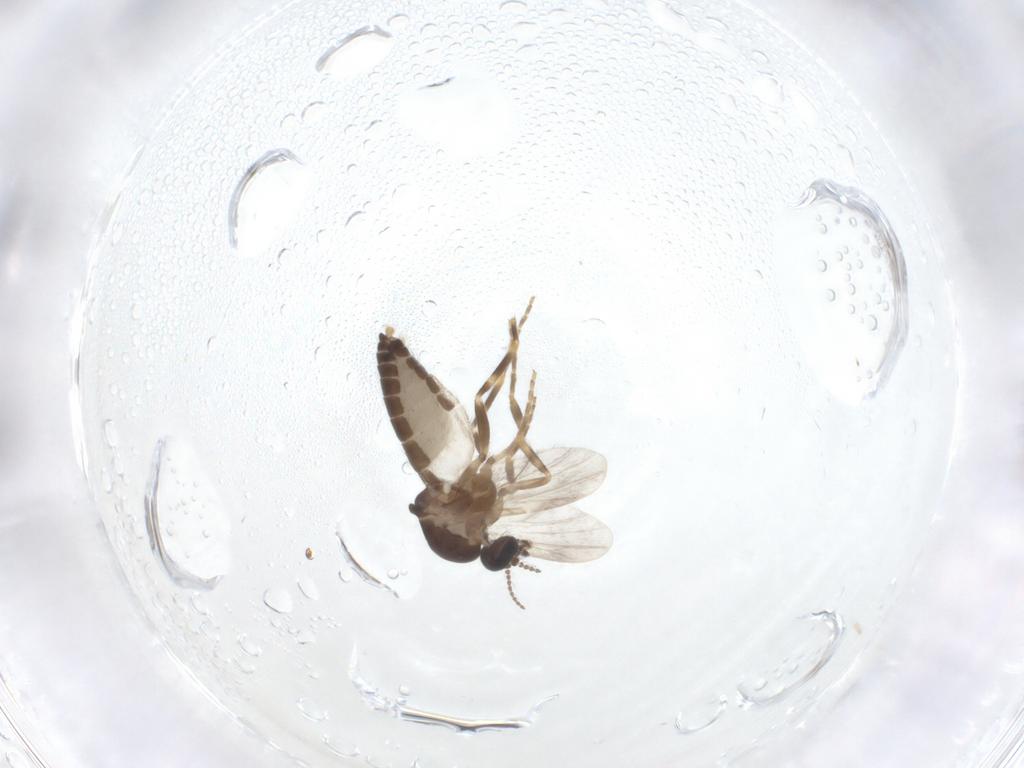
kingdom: Animalia
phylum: Arthropoda
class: Insecta
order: Diptera
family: Ceratopogonidae
